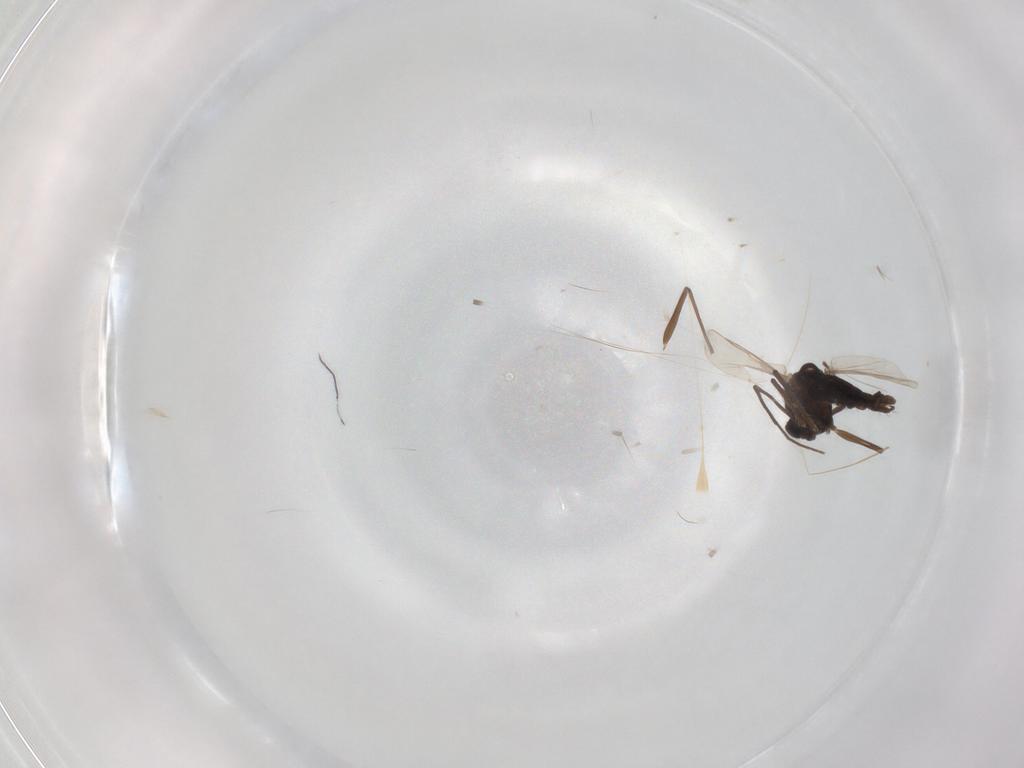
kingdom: Animalia
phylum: Arthropoda
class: Insecta
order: Diptera
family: Chironomidae
